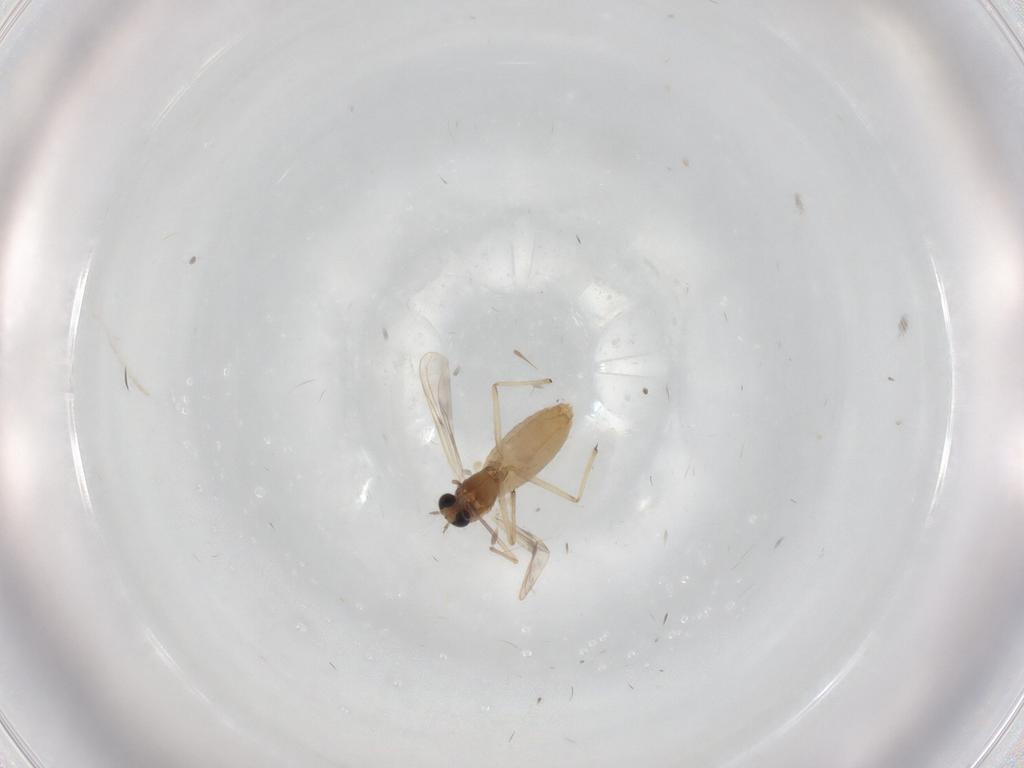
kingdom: Animalia
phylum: Arthropoda
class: Insecta
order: Diptera
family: Chironomidae
